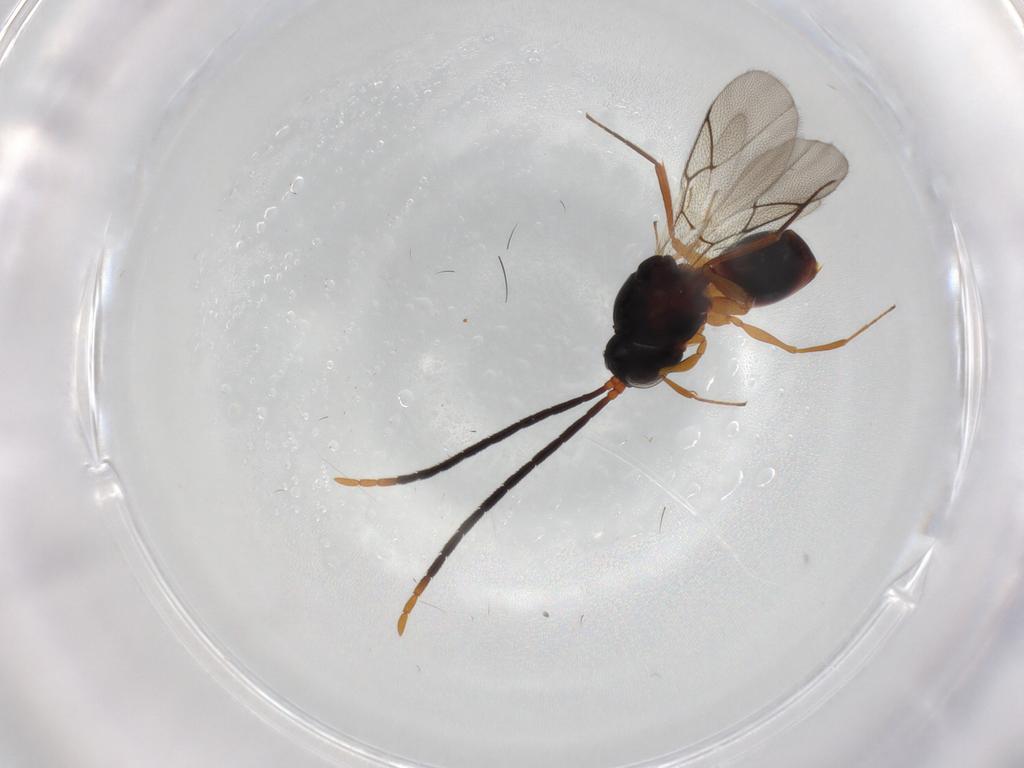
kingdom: Animalia
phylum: Arthropoda
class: Insecta
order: Hymenoptera
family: Figitidae
